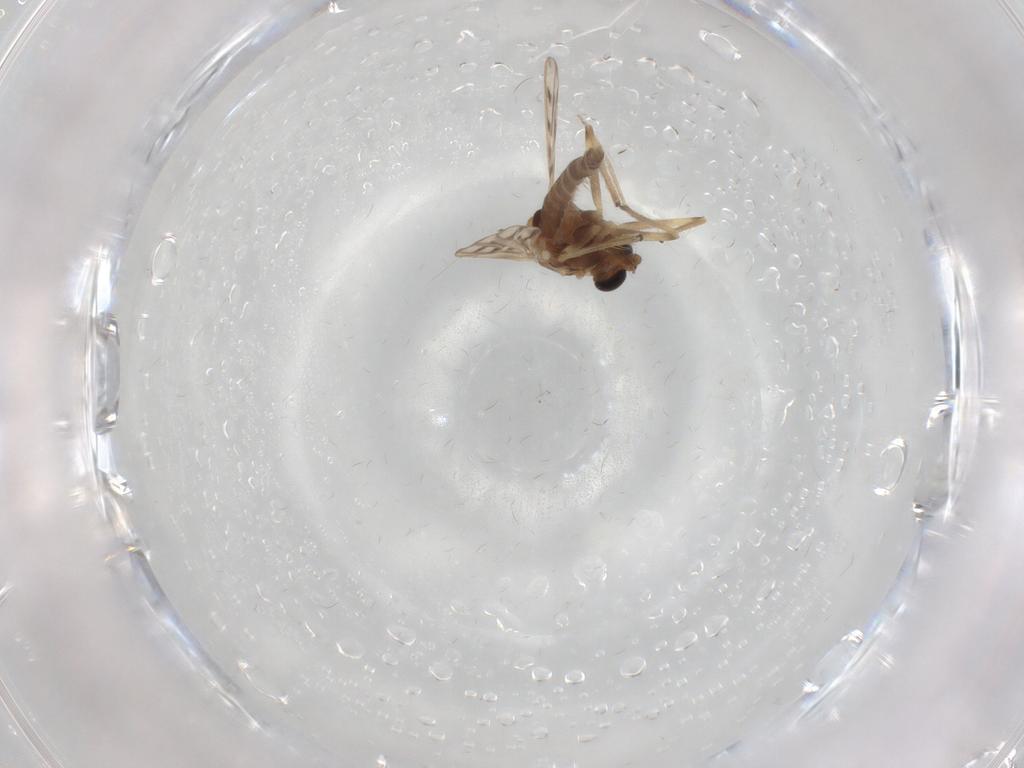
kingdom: Animalia
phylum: Arthropoda
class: Insecta
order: Diptera
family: Chironomidae
